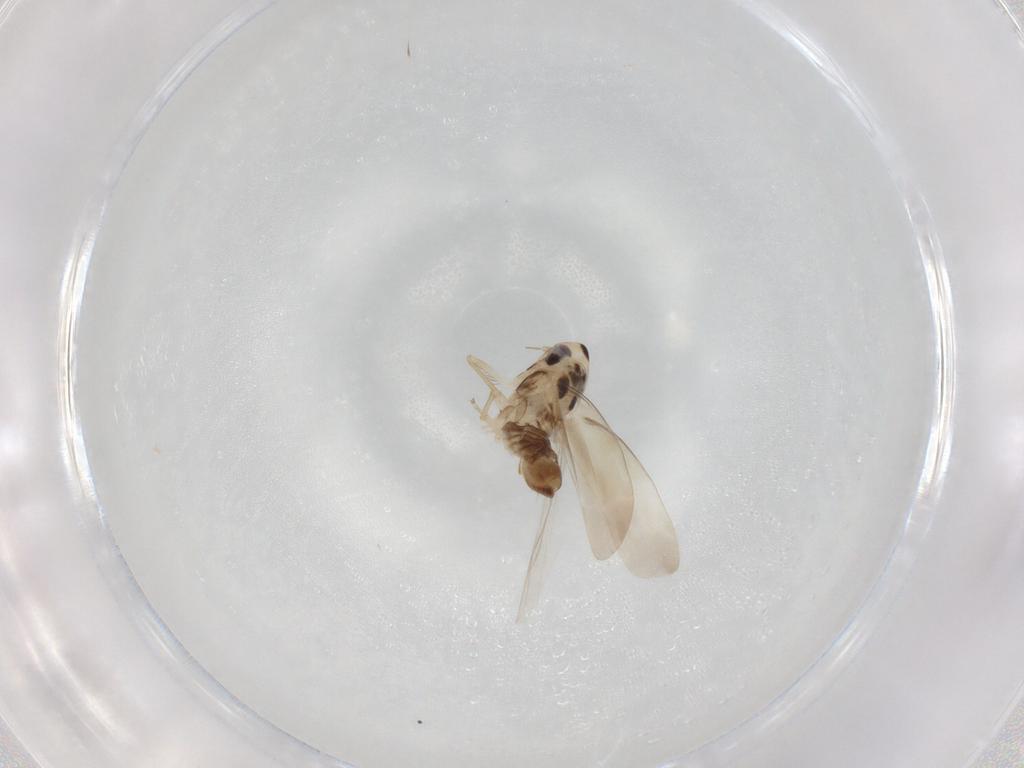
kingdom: Animalia
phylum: Arthropoda
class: Insecta
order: Hemiptera
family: Cicadellidae
